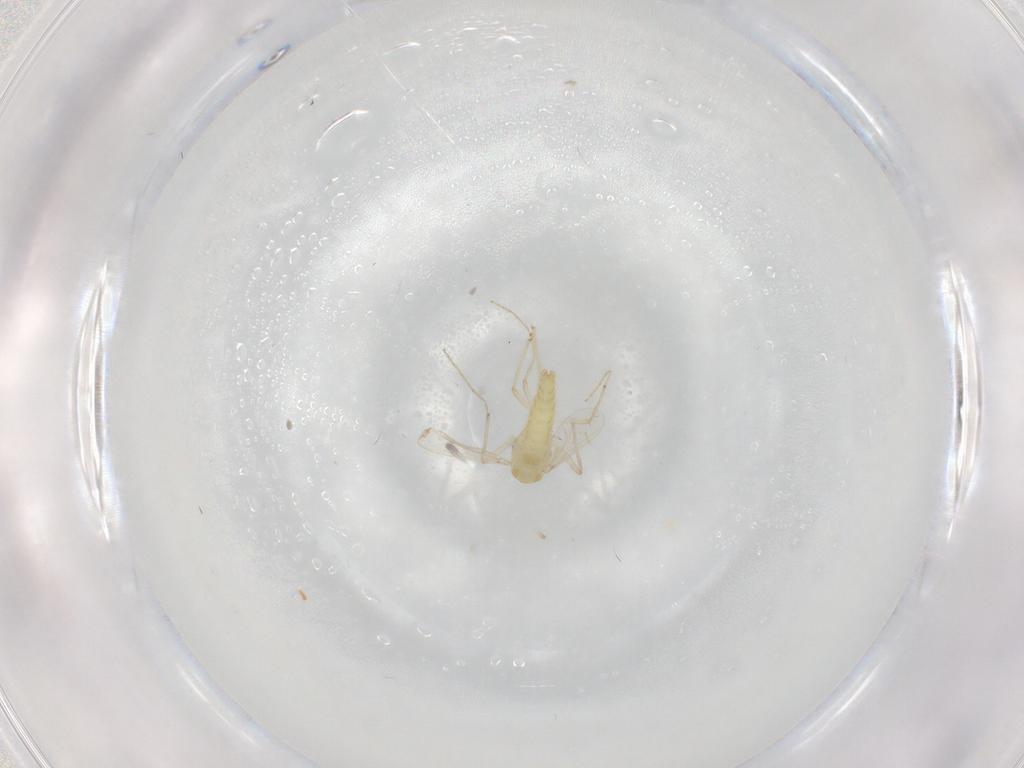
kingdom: Animalia
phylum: Arthropoda
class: Insecta
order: Diptera
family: Chironomidae
